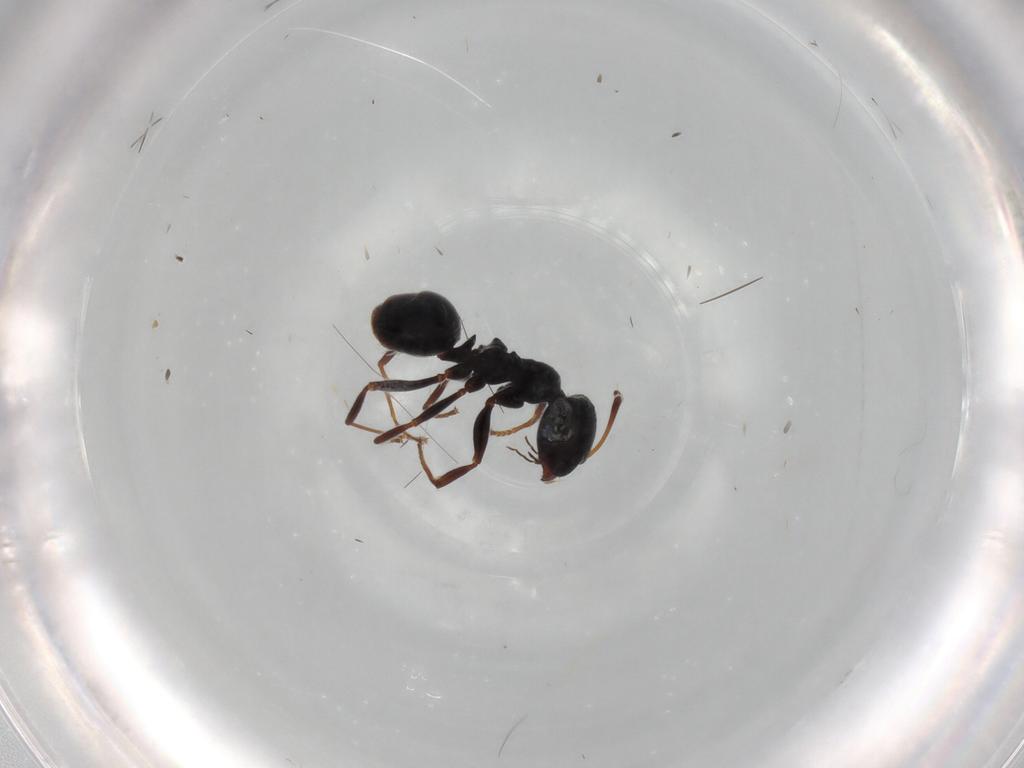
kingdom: Animalia
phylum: Arthropoda
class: Insecta
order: Hymenoptera
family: Formicidae
